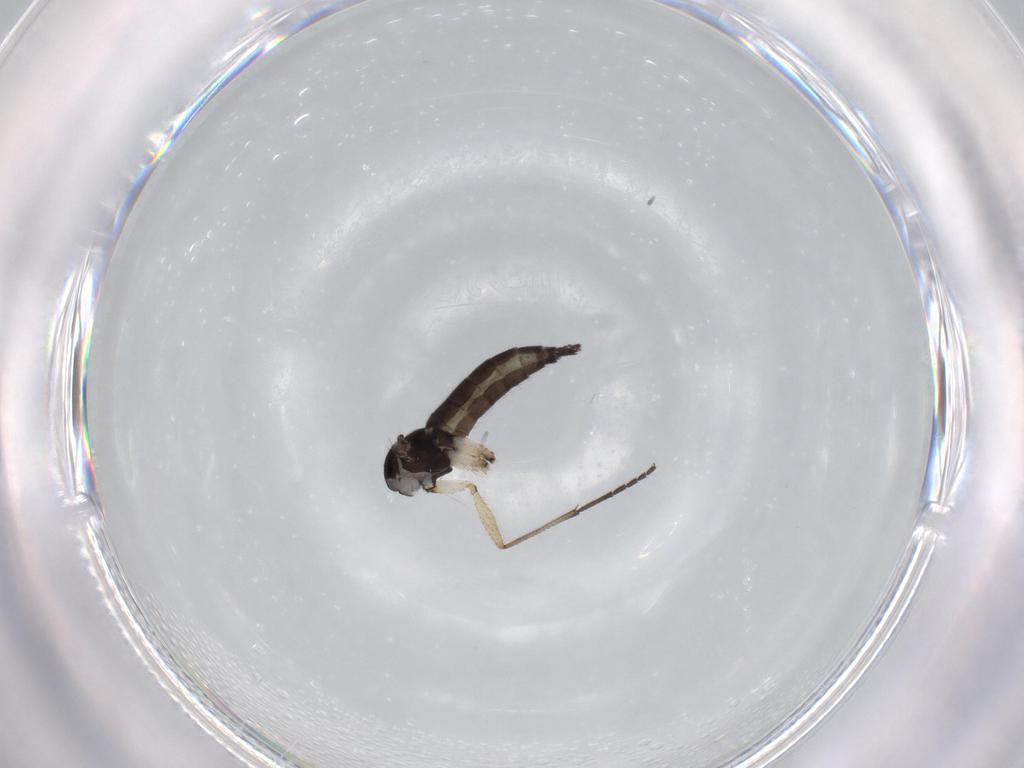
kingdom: Animalia
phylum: Arthropoda
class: Insecta
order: Diptera
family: Sciaridae
